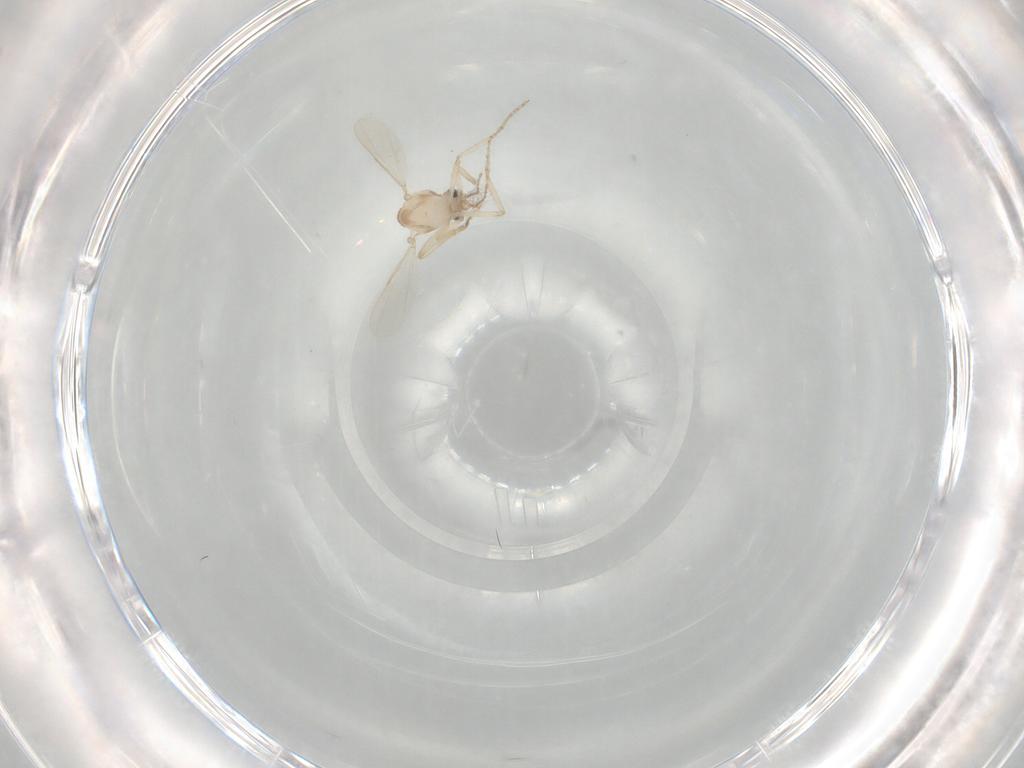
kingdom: Animalia
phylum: Arthropoda
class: Insecta
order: Diptera
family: Ceratopogonidae
